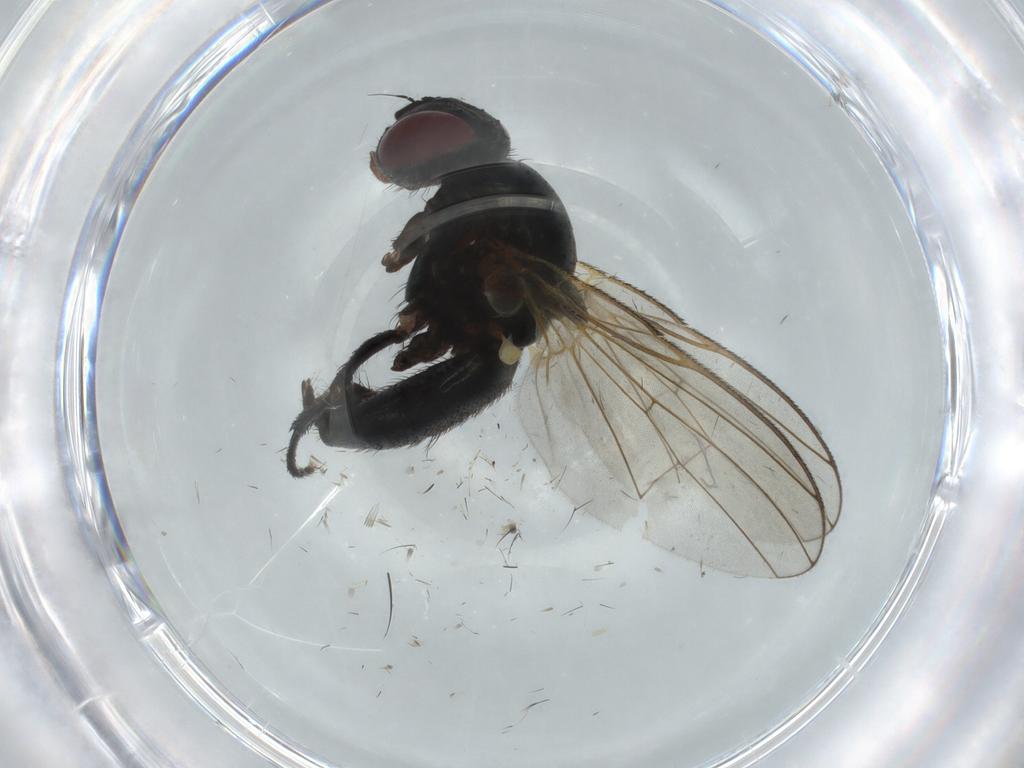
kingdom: Animalia
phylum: Arthropoda
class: Insecta
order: Diptera
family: Fannia
